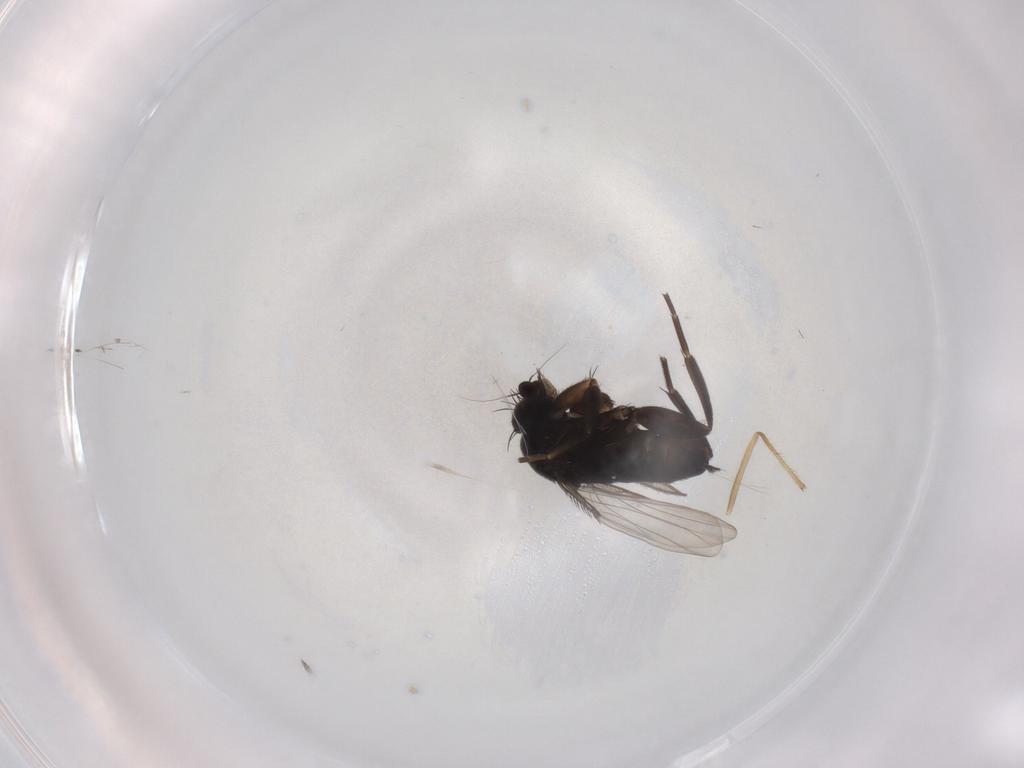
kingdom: Animalia
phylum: Arthropoda
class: Insecta
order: Diptera
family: Chironomidae
